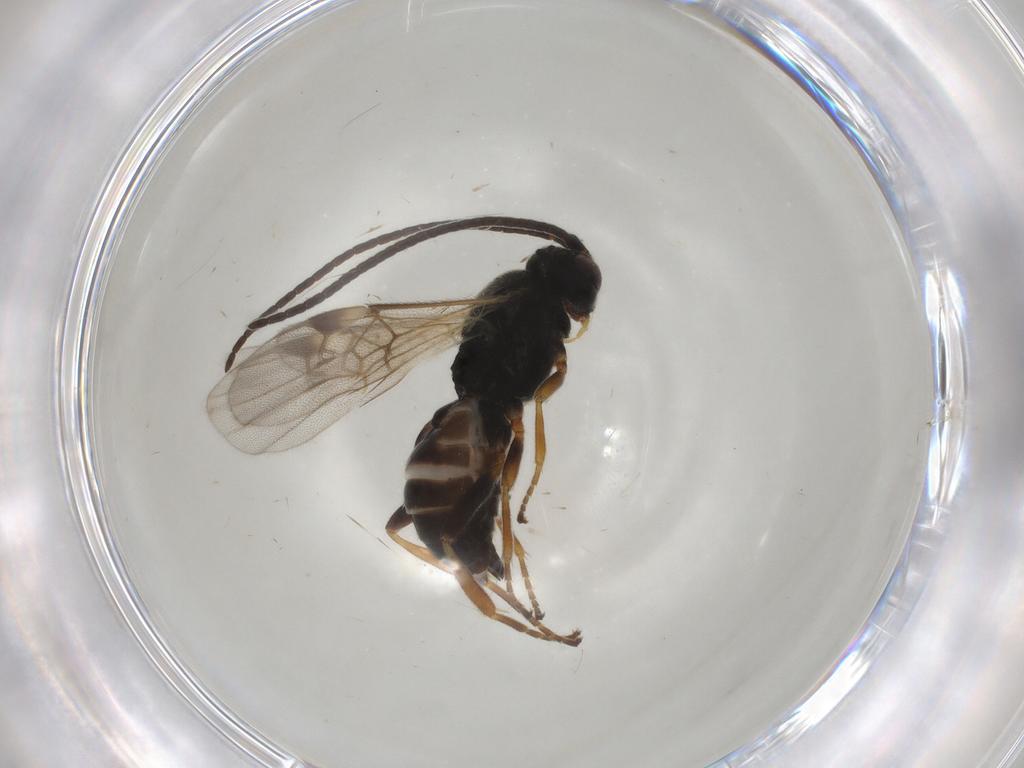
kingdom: Animalia
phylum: Arthropoda
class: Insecta
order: Hymenoptera
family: Braconidae
